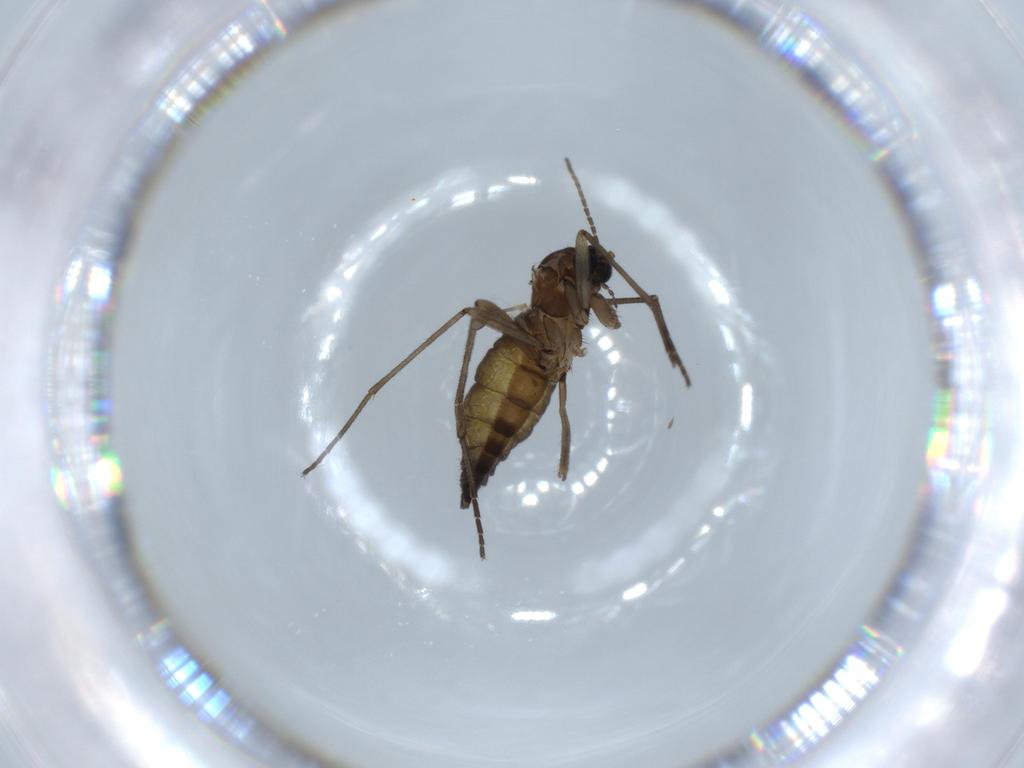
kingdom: Animalia
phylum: Arthropoda
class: Insecta
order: Diptera
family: Sciaridae
